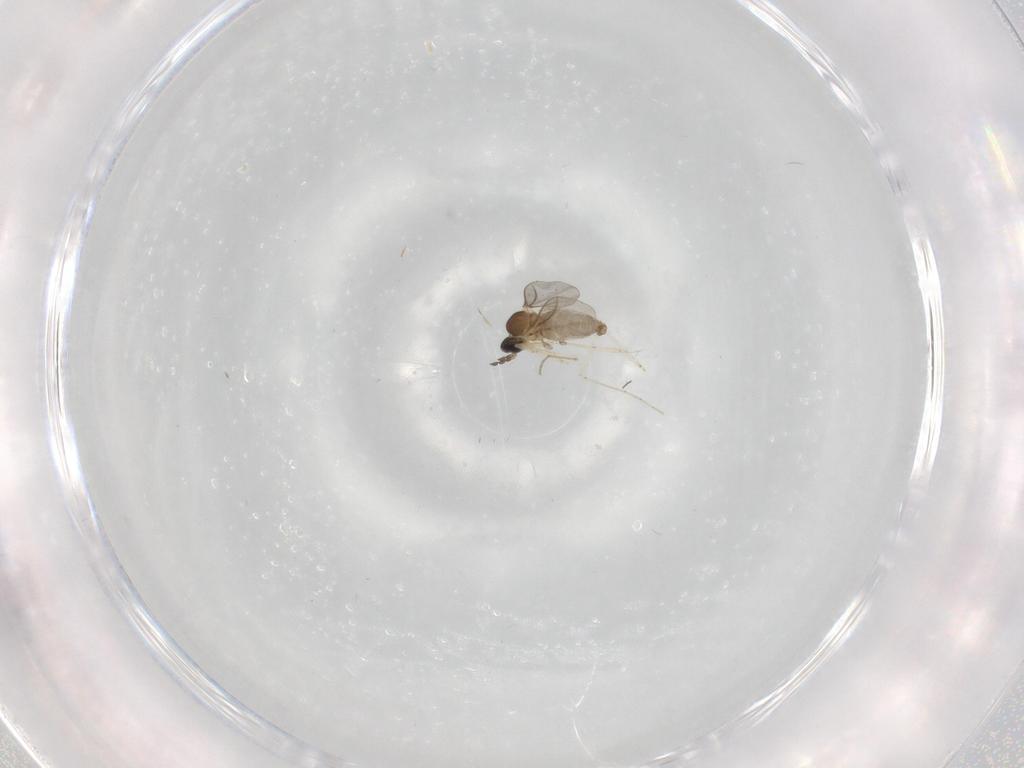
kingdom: Animalia
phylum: Arthropoda
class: Insecta
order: Diptera
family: Cecidomyiidae
